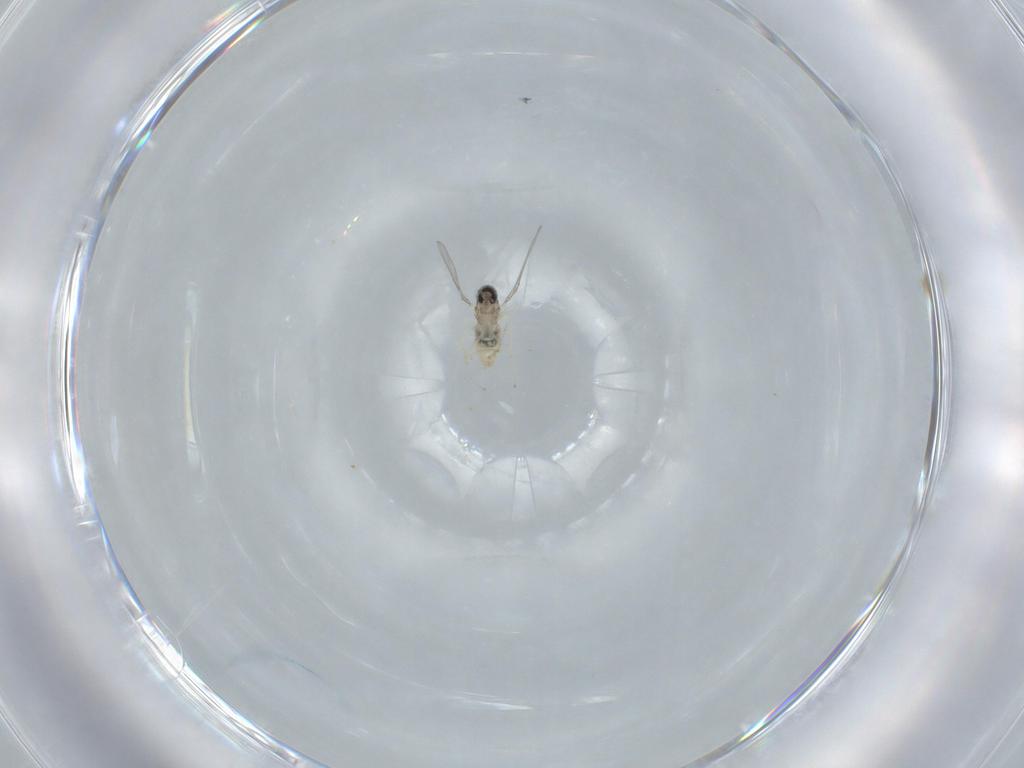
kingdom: Animalia
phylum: Arthropoda
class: Insecta
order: Diptera
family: Cecidomyiidae
